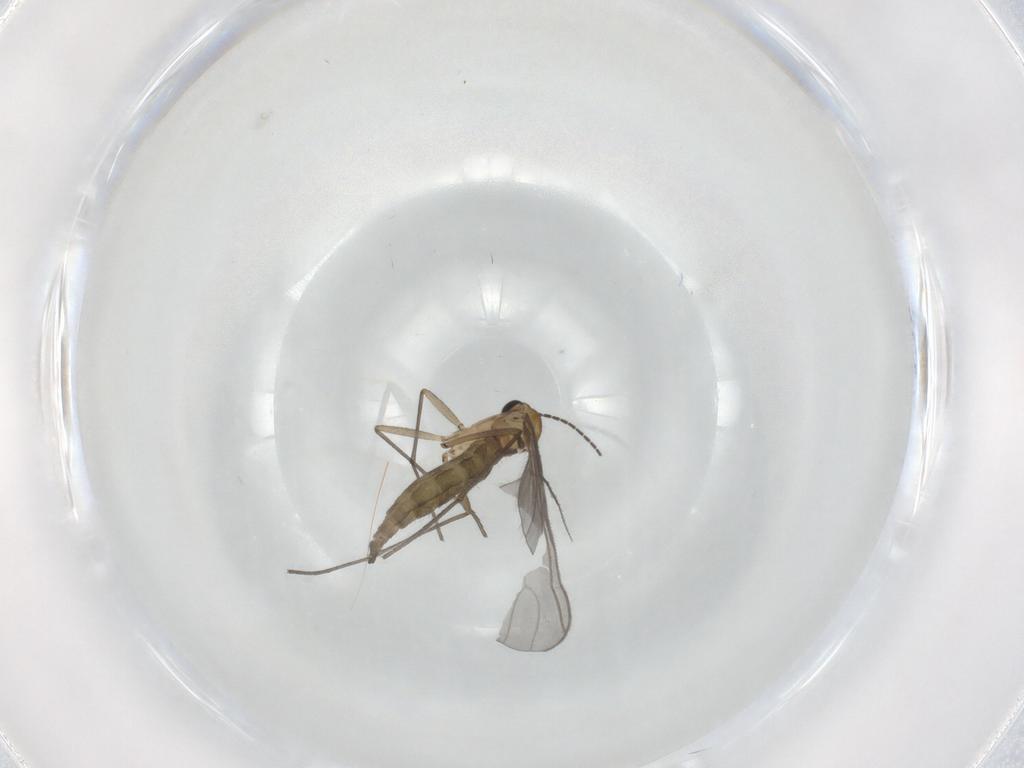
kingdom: Animalia
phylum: Arthropoda
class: Insecta
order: Diptera
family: Sciaridae
